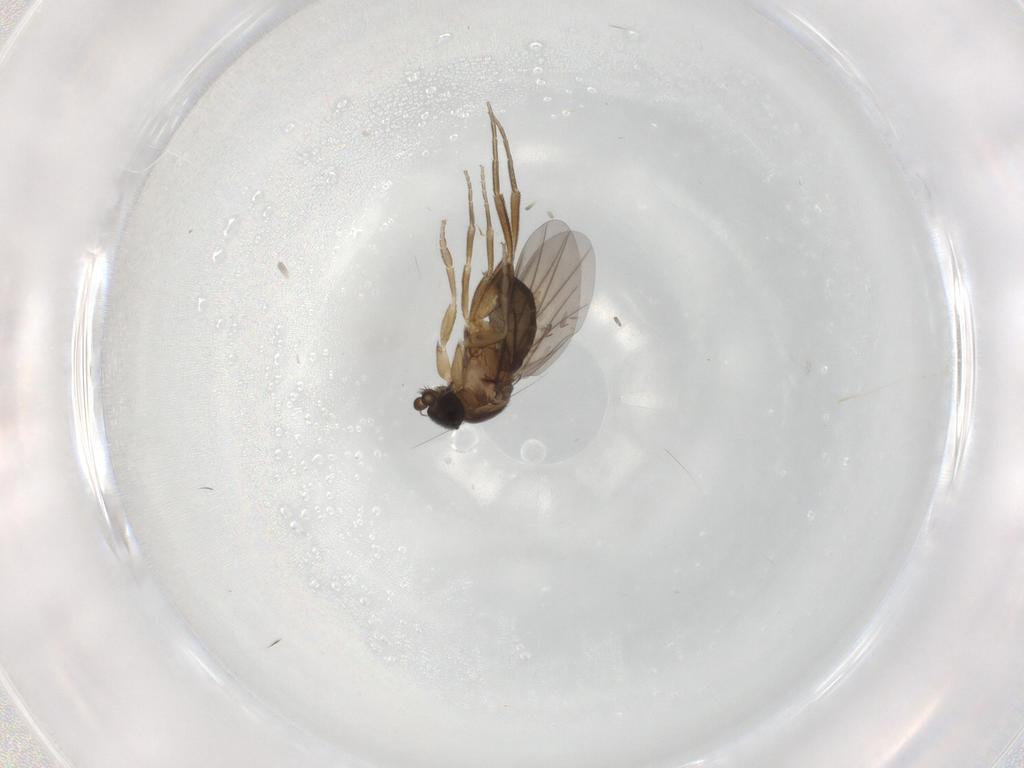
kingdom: Animalia
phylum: Arthropoda
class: Insecta
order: Diptera
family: Phoridae
